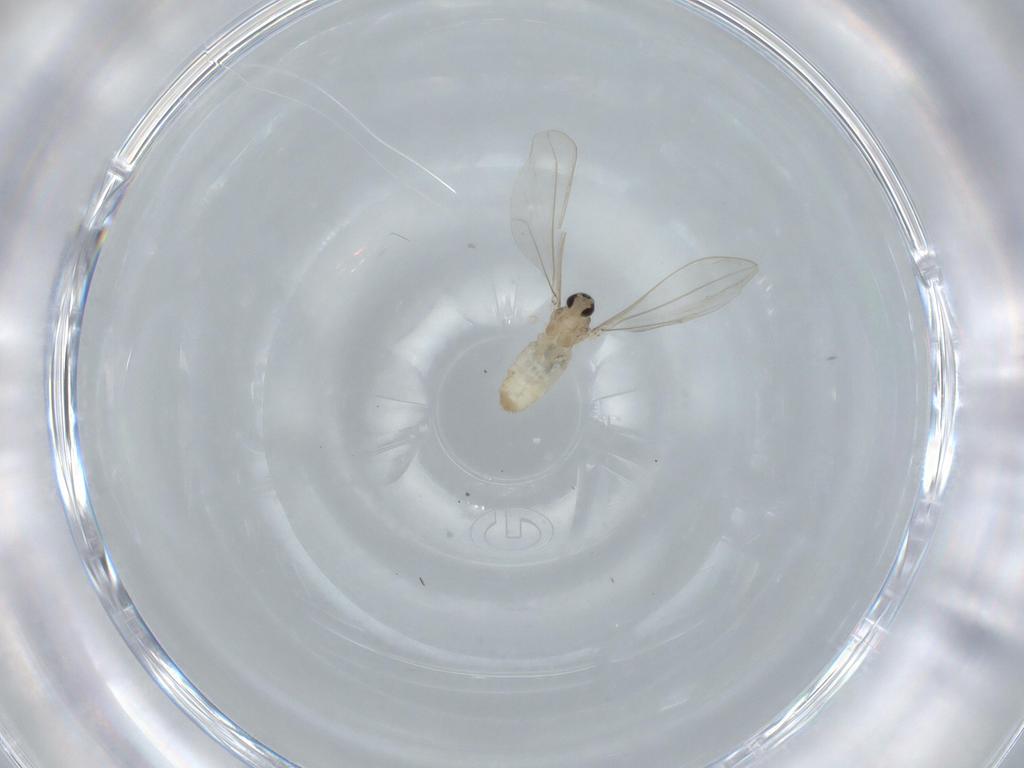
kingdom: Animalia
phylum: Arthropoda
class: Insecta
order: Diptera
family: Cecidomyiidae
